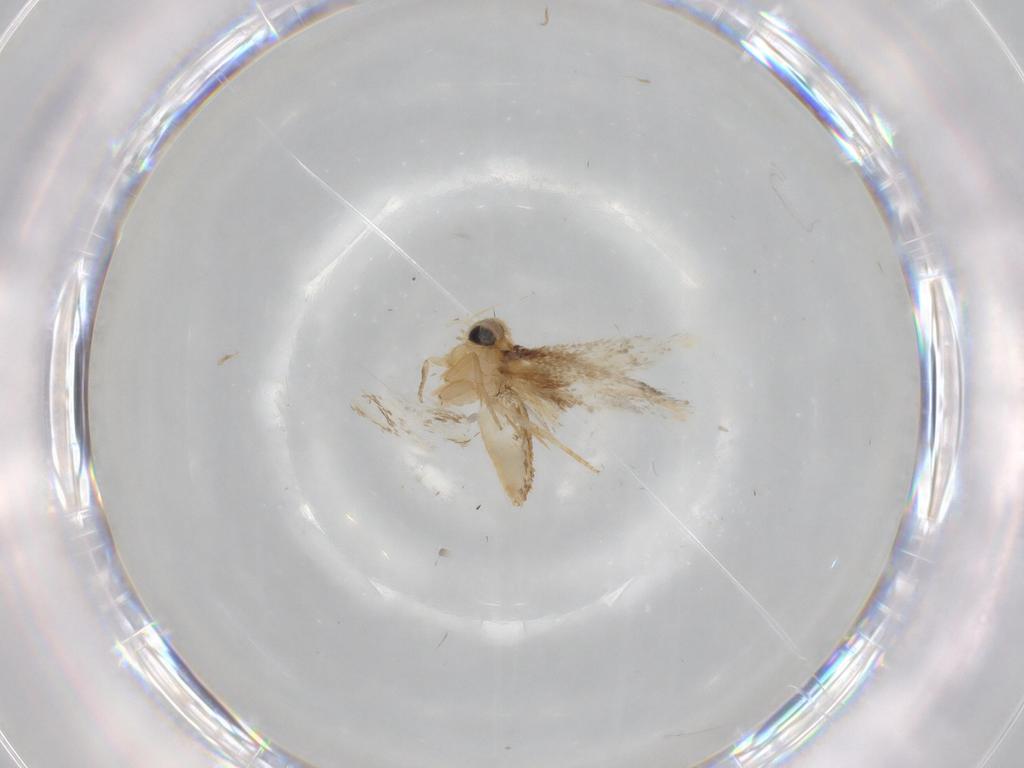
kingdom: Animalia
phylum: Arthropoda
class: Insecta
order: Lepidoptera
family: Nepticulidae
